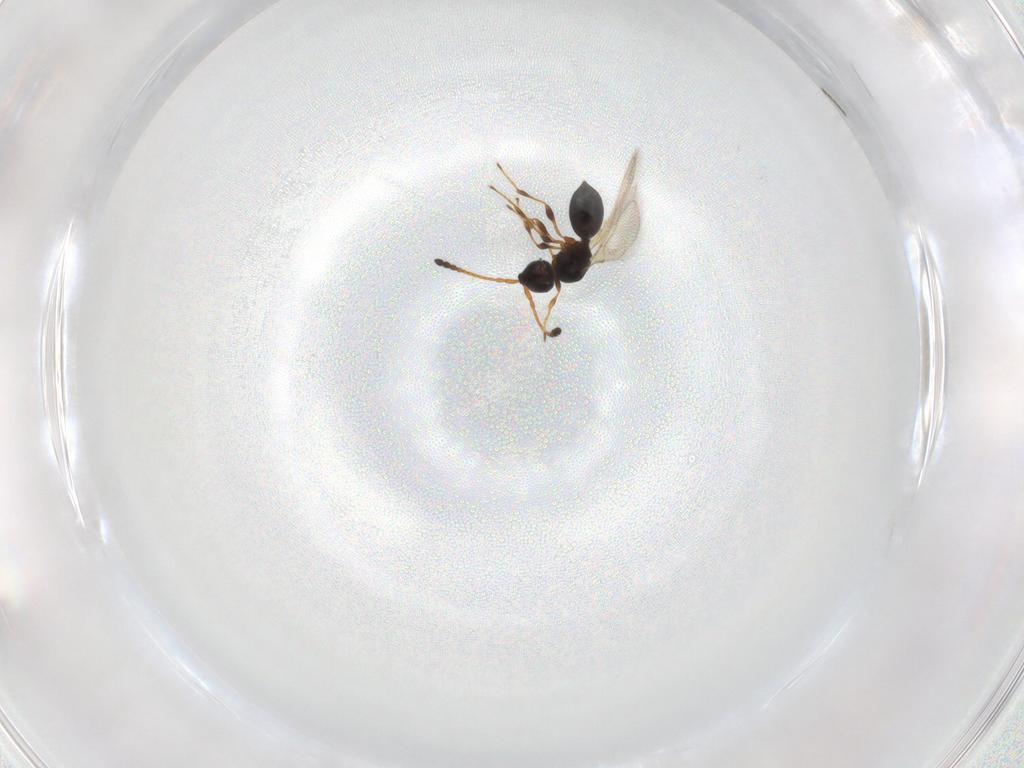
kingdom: Animalia
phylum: Arthropoda
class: Insecta
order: Hymenoptera
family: Diapriidae
